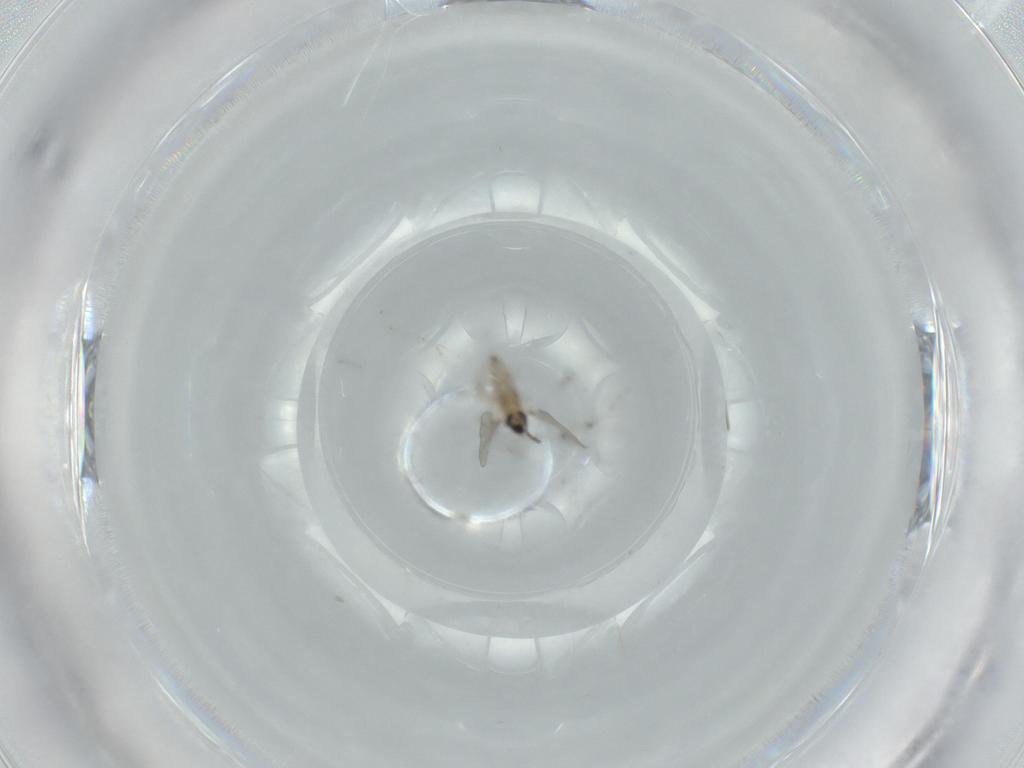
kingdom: Animalia
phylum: Arthropoda
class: Insecta
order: Diptera
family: Cecidomyiidae
